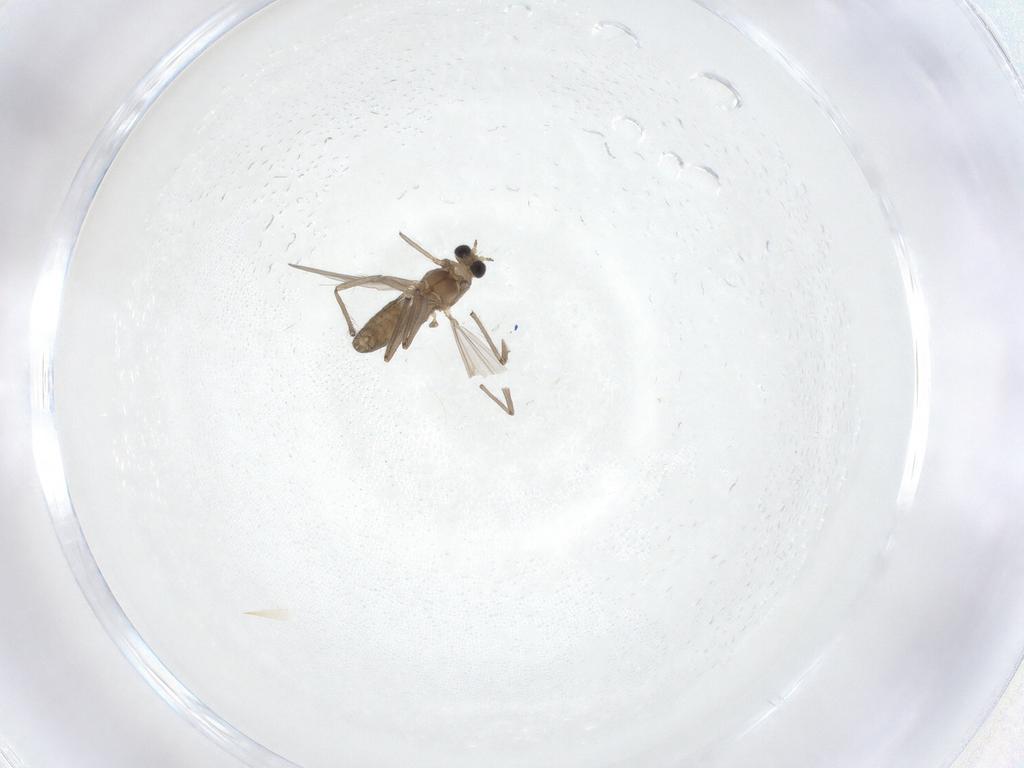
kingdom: Animalia
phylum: Arthropoda
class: Insecta
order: Diptera
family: Chironomidae
